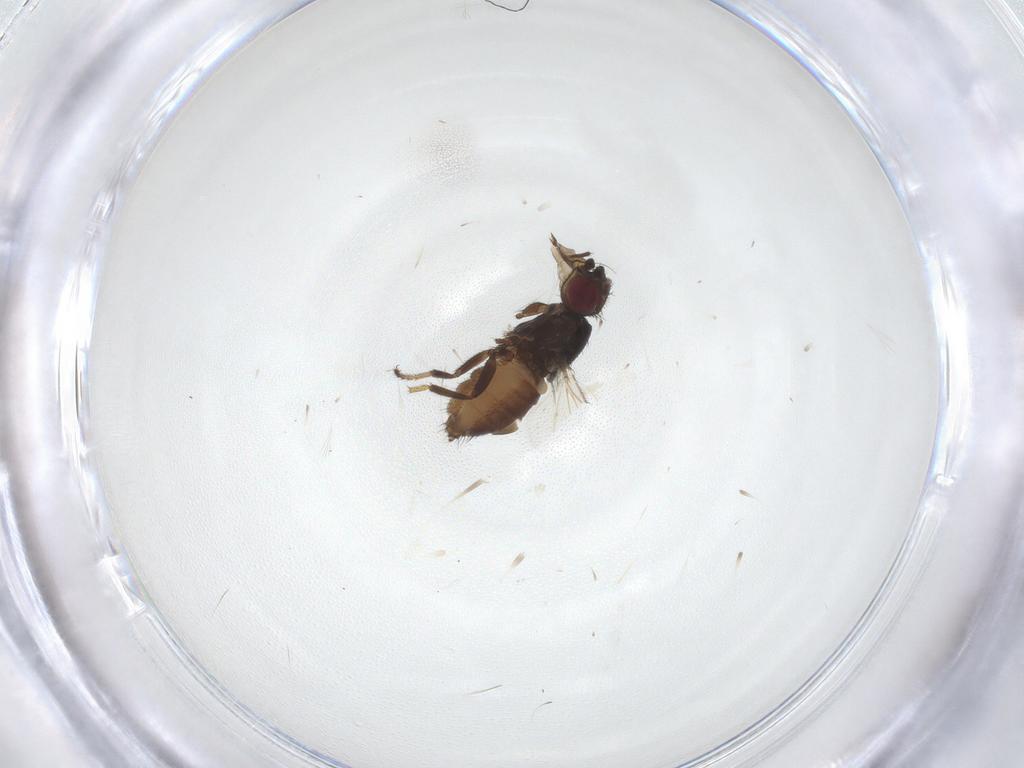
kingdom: Animalia
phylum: Arthropoda
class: Insecta
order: Diptera
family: Milichiidae
